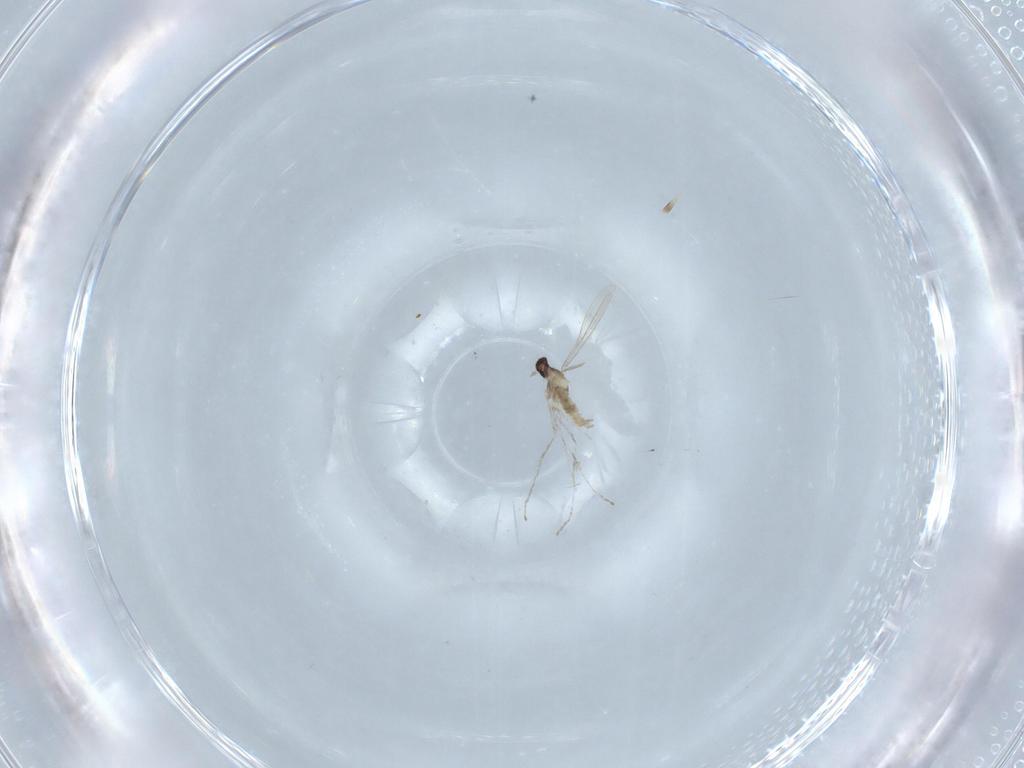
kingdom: Animalia
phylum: Arthropoda
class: Insecta
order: Diptera
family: Cecidomyiidae
